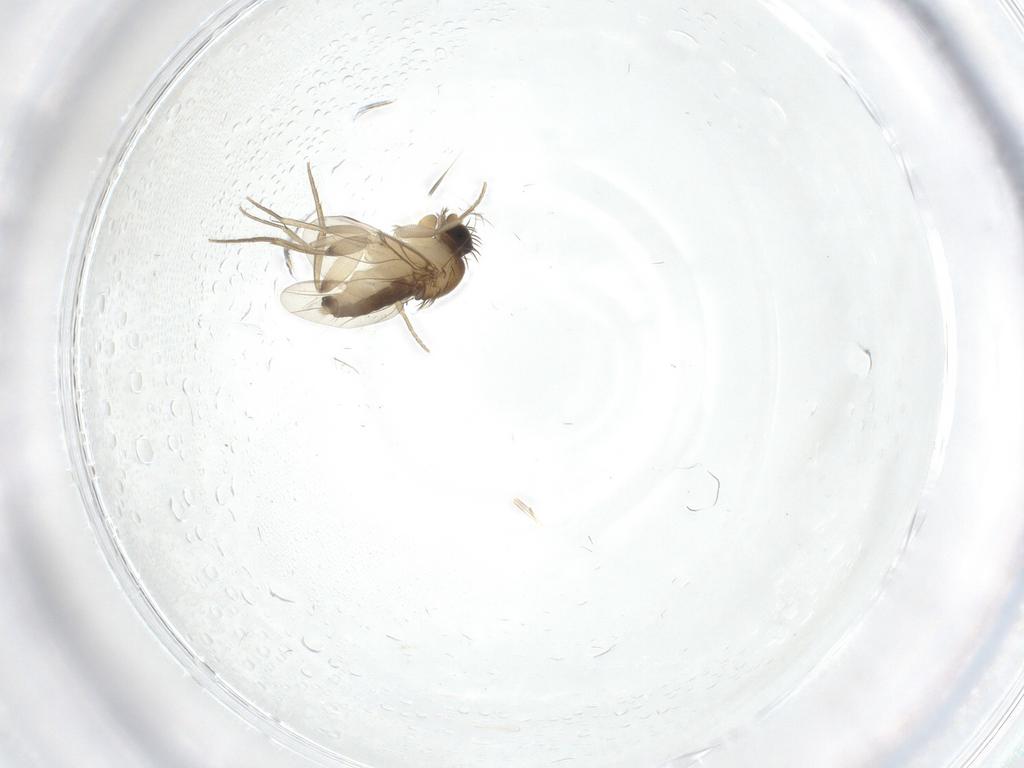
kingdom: Animalia
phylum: Arthropoda
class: Insecta
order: Diptera
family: Phoridae
